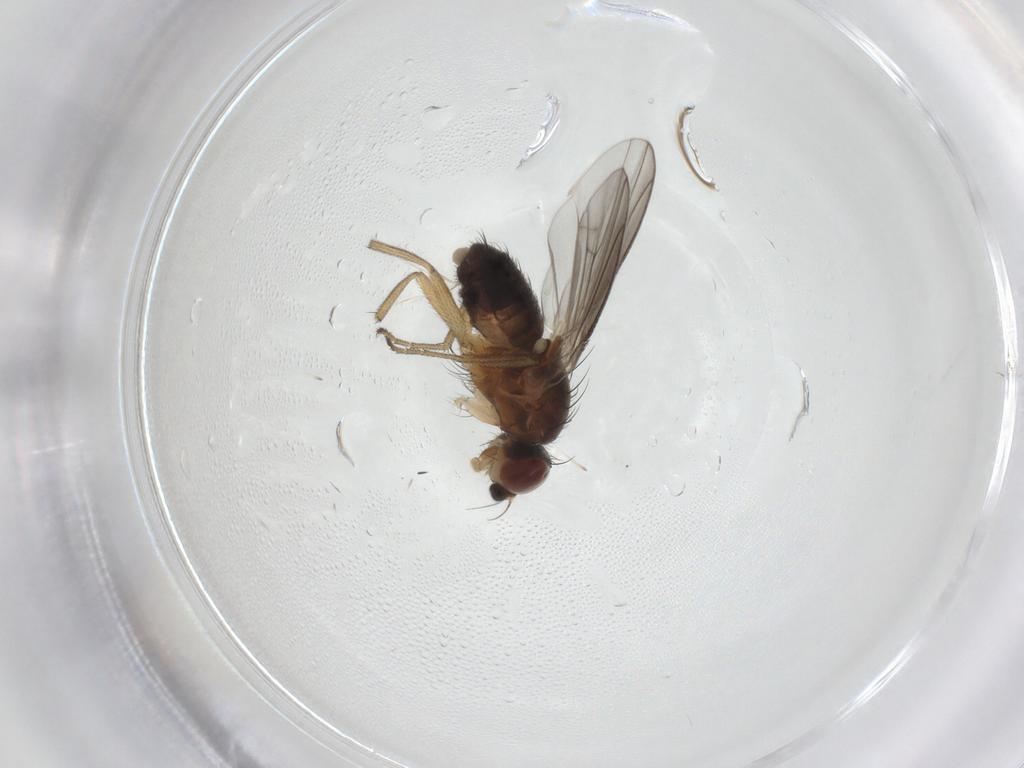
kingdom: Animalia
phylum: Arthropoda
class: Insecta
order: Diptera
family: Heleomyzidae
